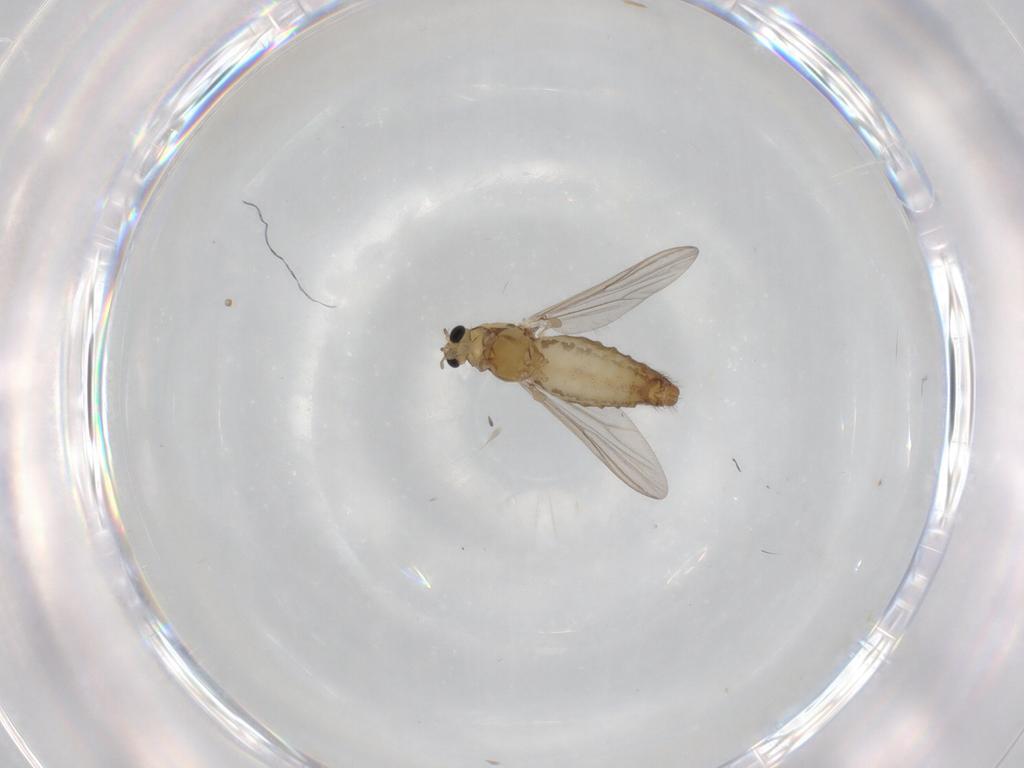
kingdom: Animalia
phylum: Arthropoda
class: Insecta
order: Diptera
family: Chironomidae
